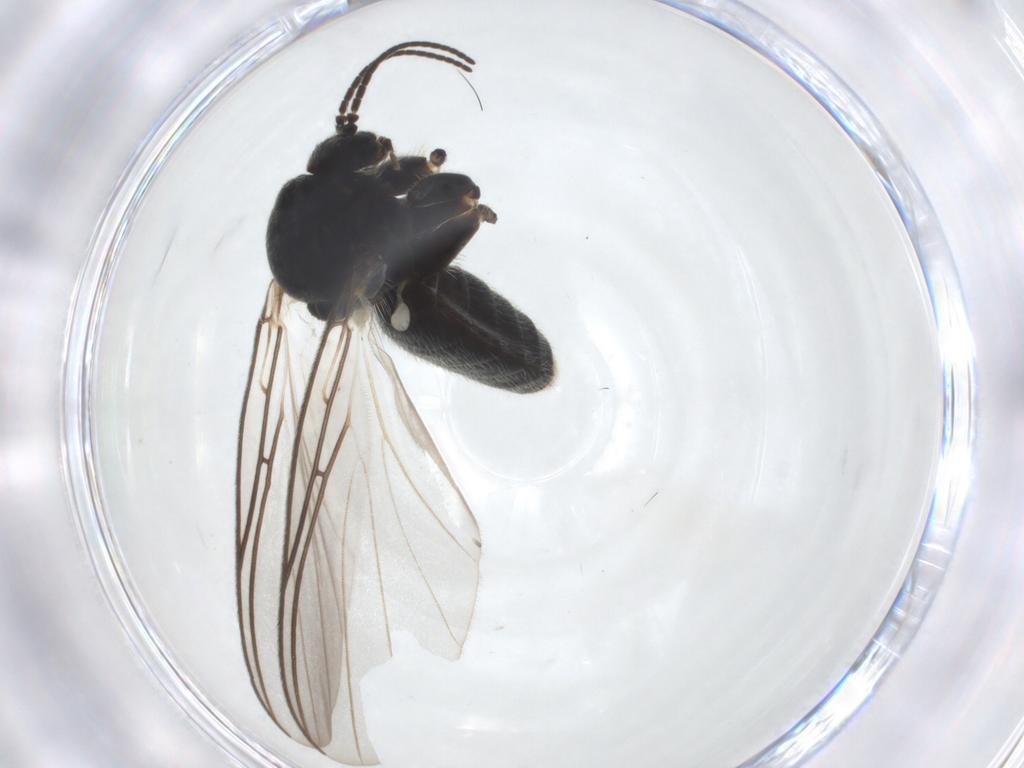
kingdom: Animalia
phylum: Arthropoda
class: Insecta
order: Diptera
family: Mycetophilidae
